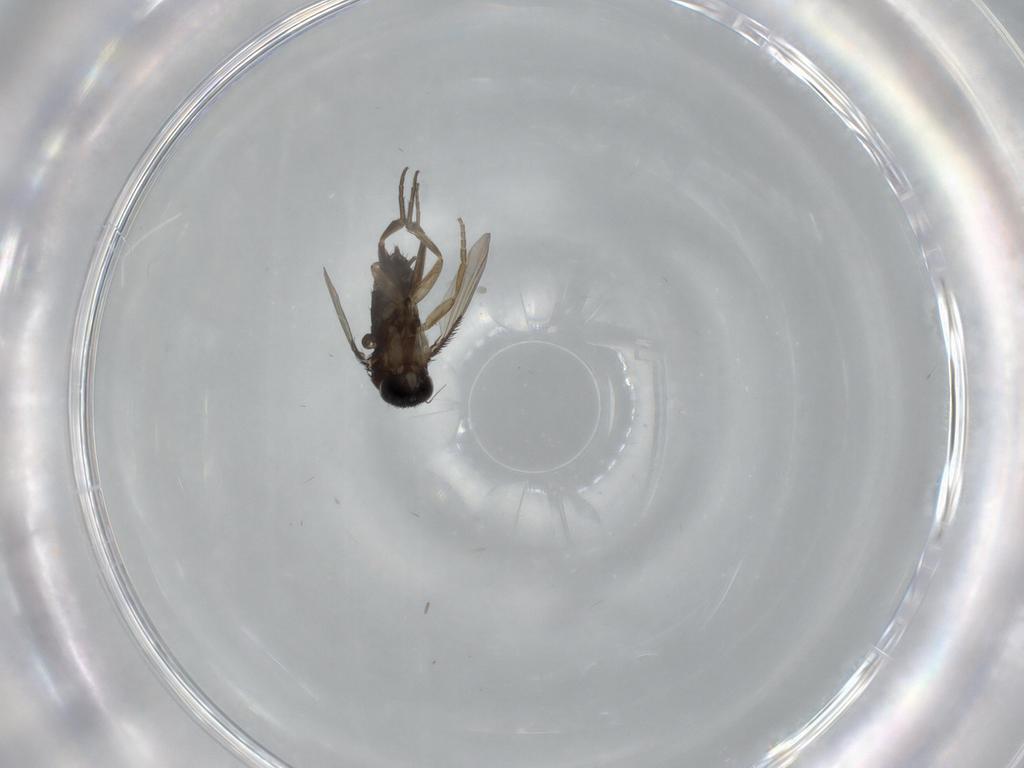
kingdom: Animalia
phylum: Arthropoda
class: Insecta
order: Diptera
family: Phoridae
